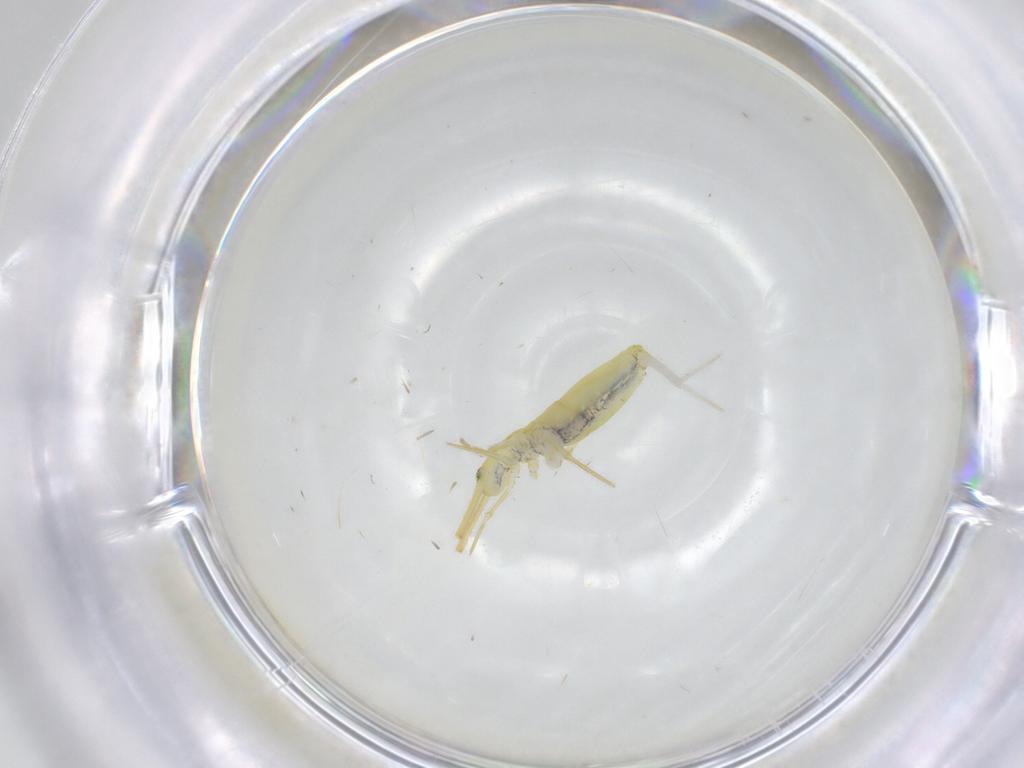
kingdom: Animalia
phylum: Arthropoda
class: Collembola
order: Entomobryomorpha
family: Paronellidae
